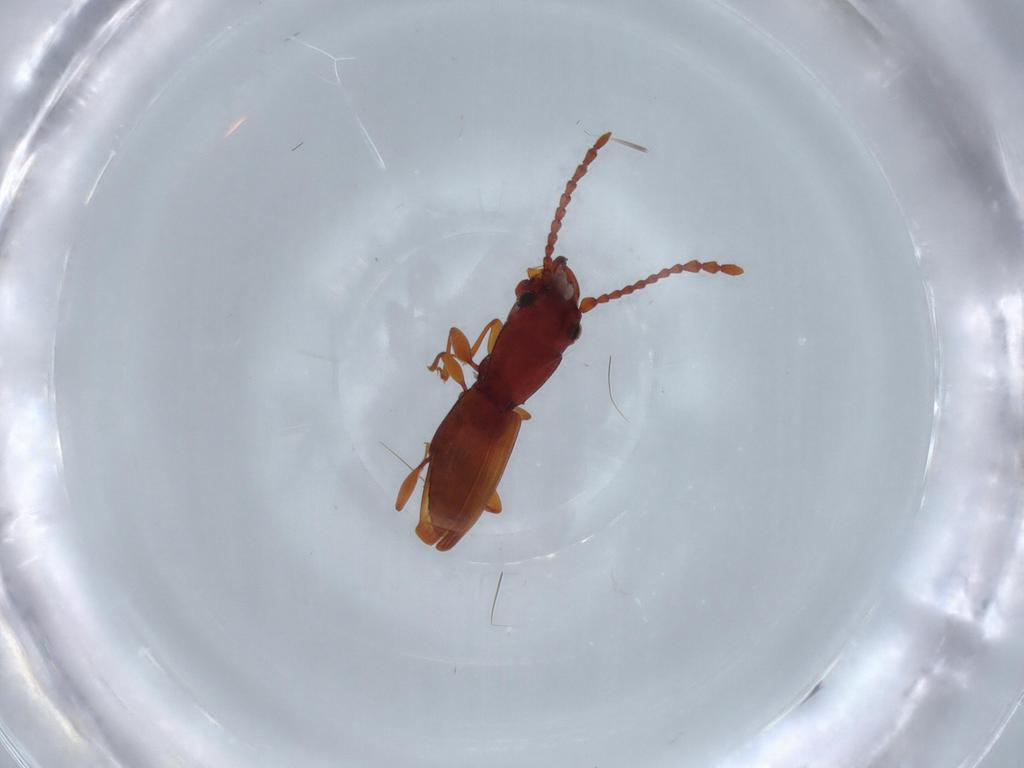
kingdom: Animalia
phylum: Arthropoda
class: Insecta
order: Coleoptera
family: Laemophloeidae
